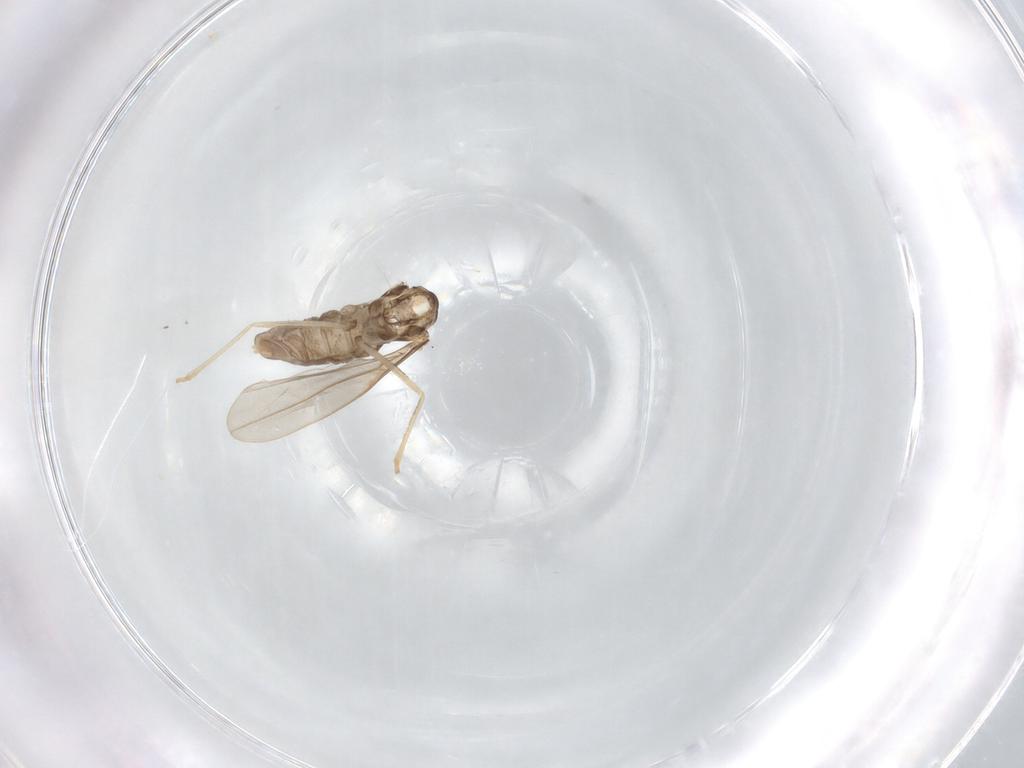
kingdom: Animalia
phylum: Arthropoda
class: Insecta
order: Diptera
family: Cecidomyiidae
